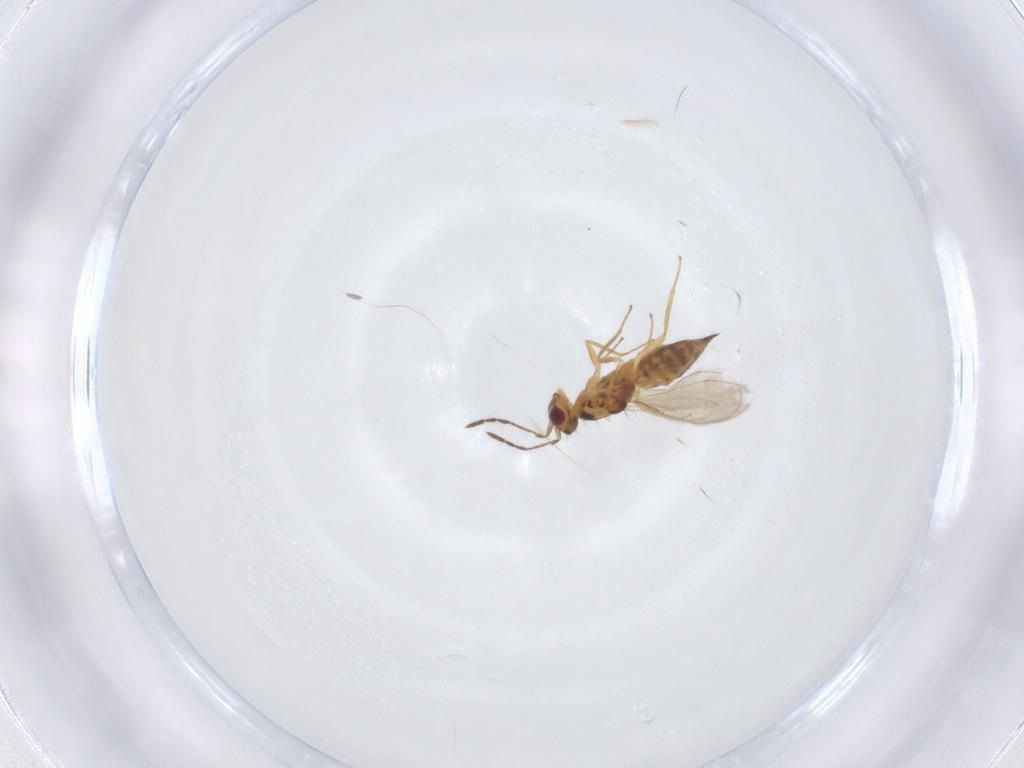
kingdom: Animalia
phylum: Arthropoda
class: Insecta
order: Hymenoptera
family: Eulophidae
